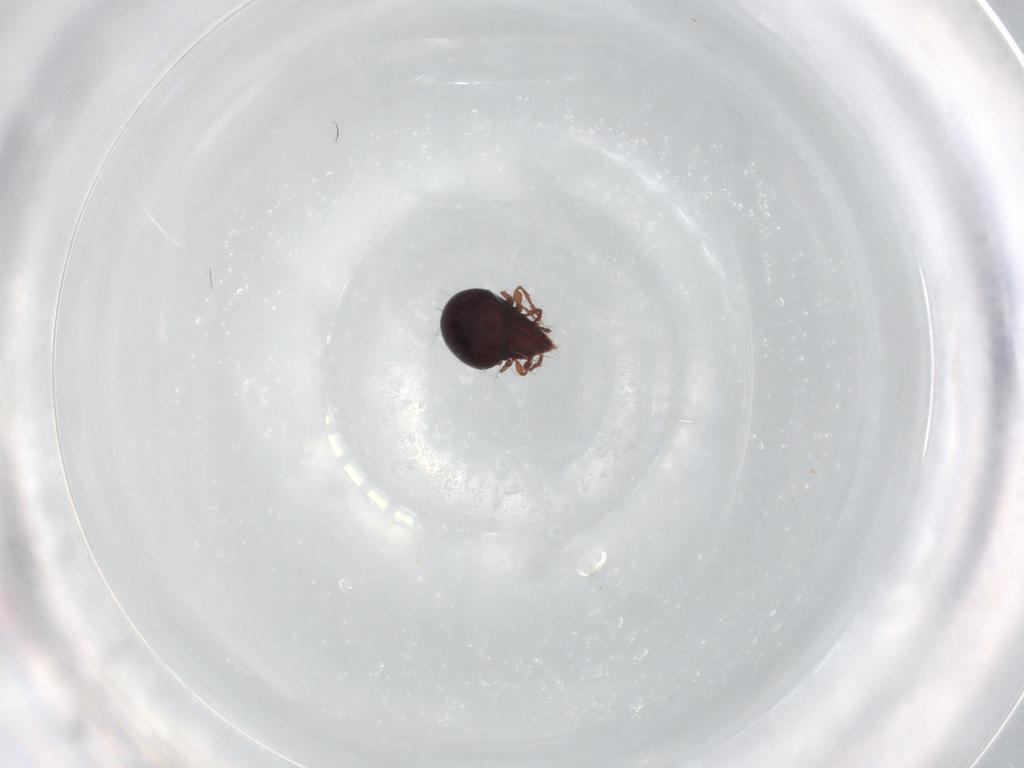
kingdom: Animalia
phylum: Arthropoda
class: Arachnida
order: Sarcoptiformes
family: Ceratoppiidae
